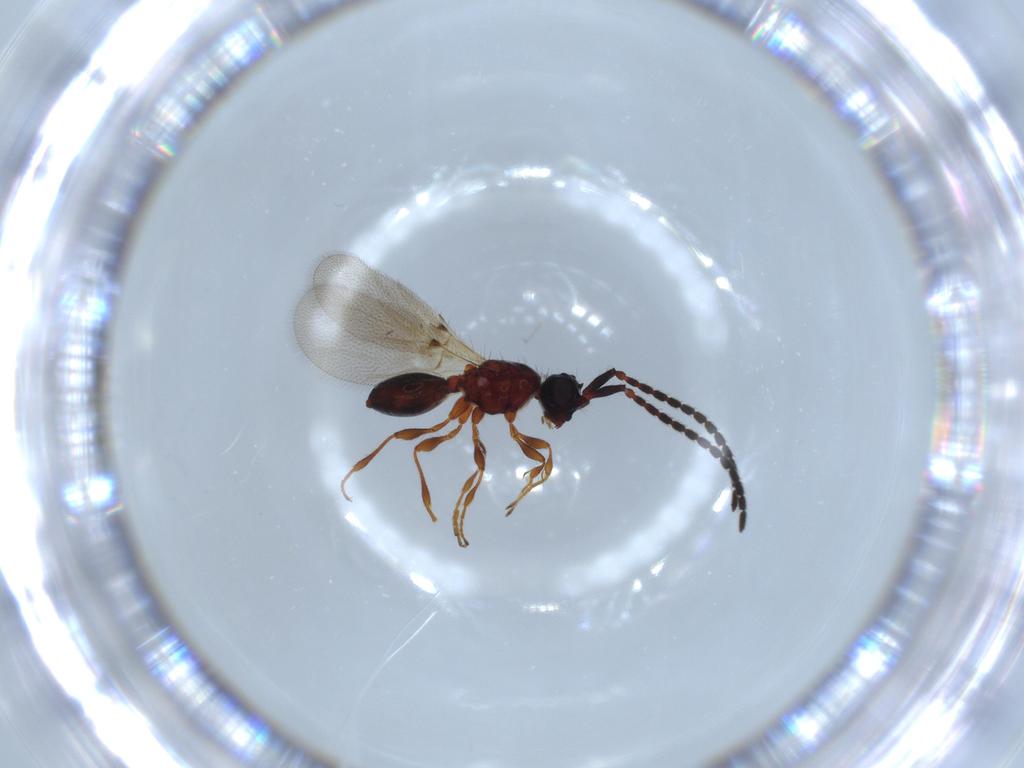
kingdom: Animalia
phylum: Arthropoda
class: Insecta
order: Hymenoptera
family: Diapriidae
